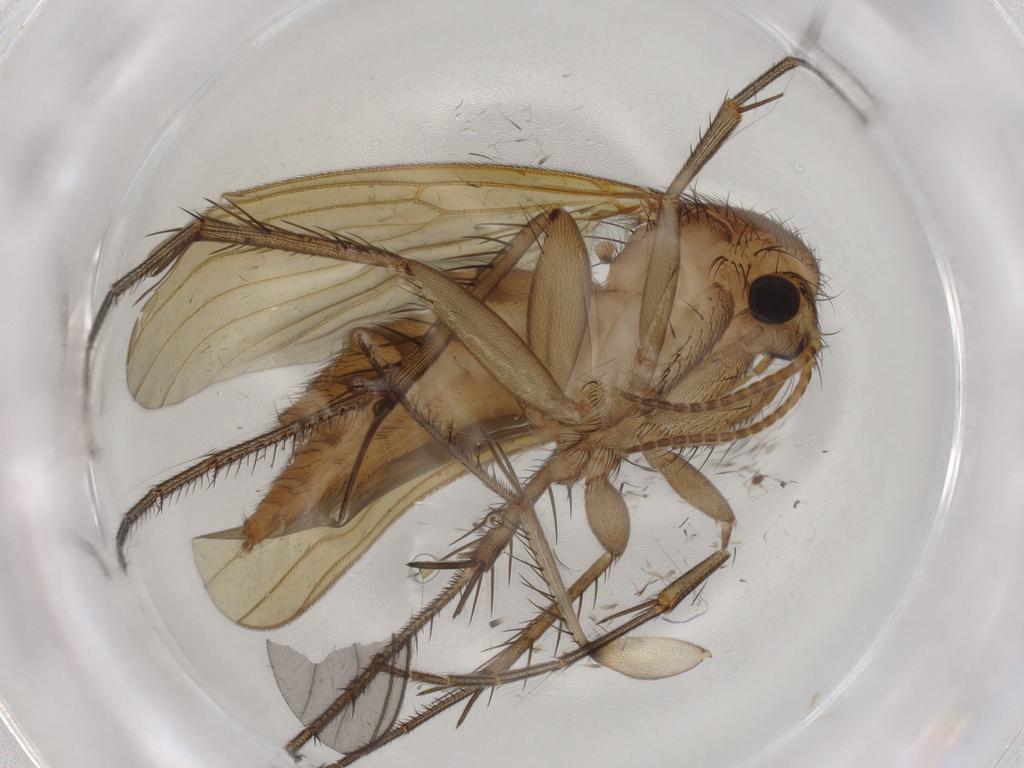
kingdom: Animalia
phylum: Arthropoda
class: Insecta
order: Diptera
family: Mycetophilidae
